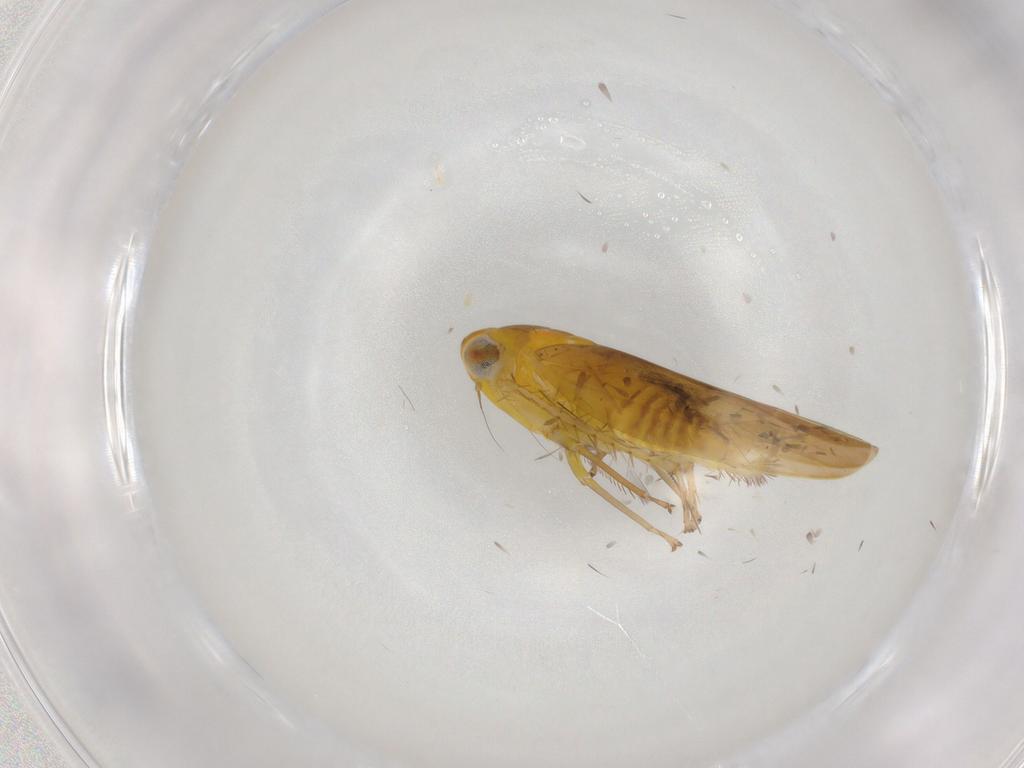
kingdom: Animalia
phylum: Arthropoda
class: Insecta
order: Hemiptera
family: Cicadellidae
